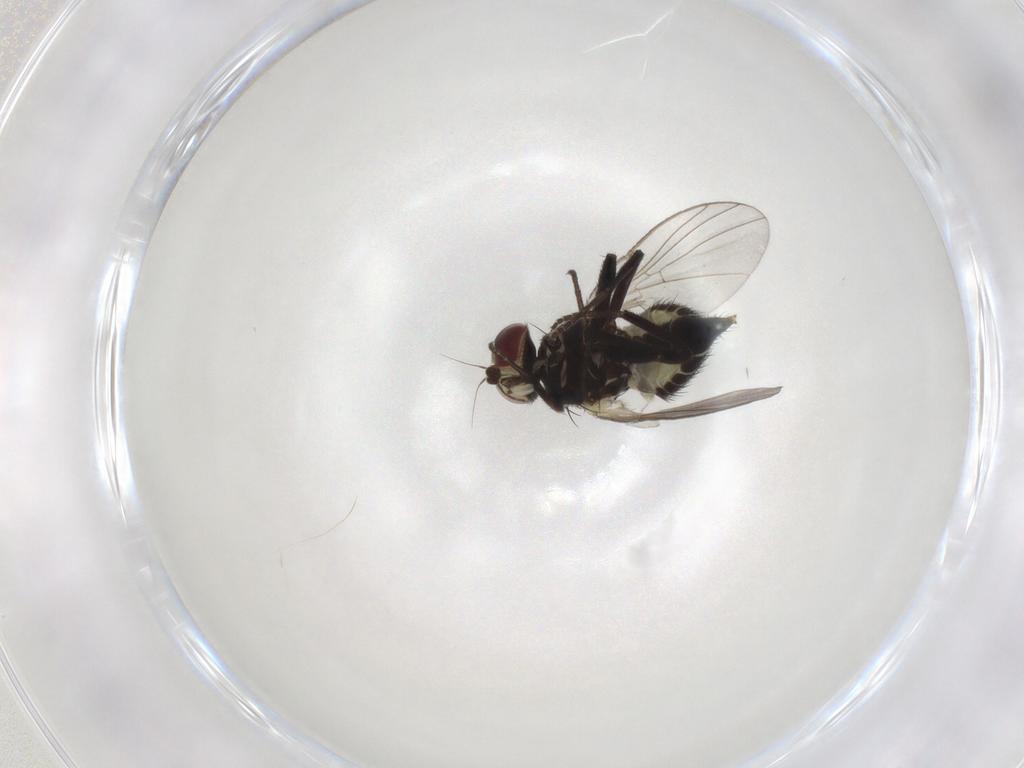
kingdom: Animalia
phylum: Arthropoda
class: Insecta
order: Diptera
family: Agromyzidae
